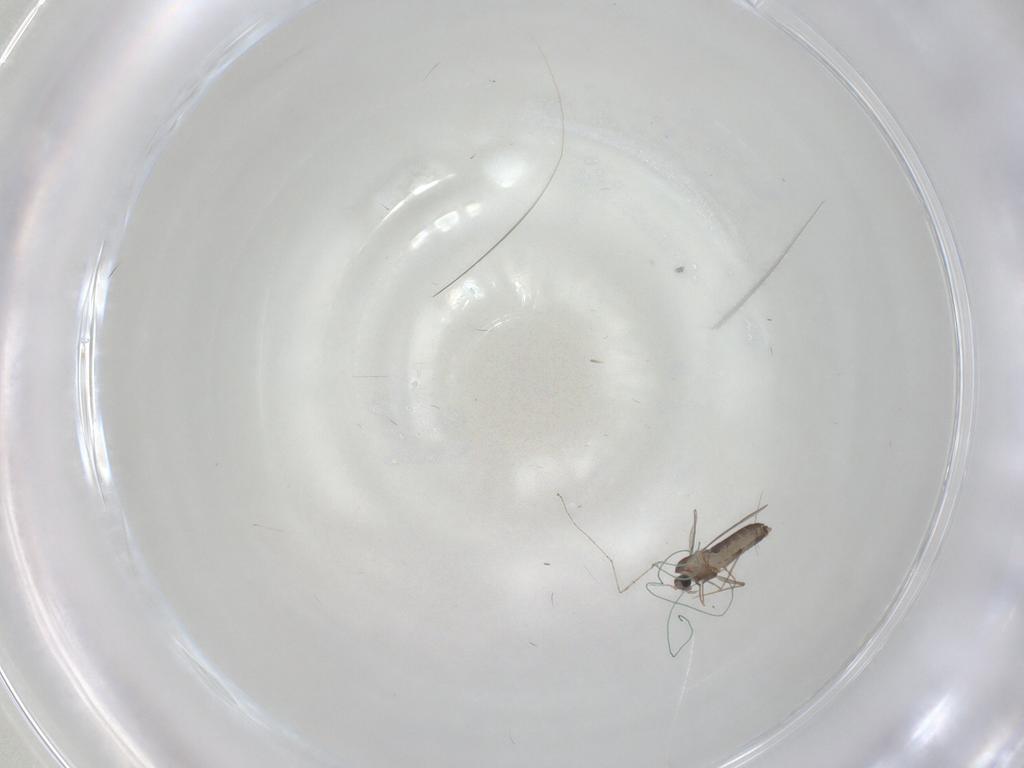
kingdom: Animalia
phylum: Arthropoda
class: Insecta
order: Diptera
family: Cecidomyiidae
